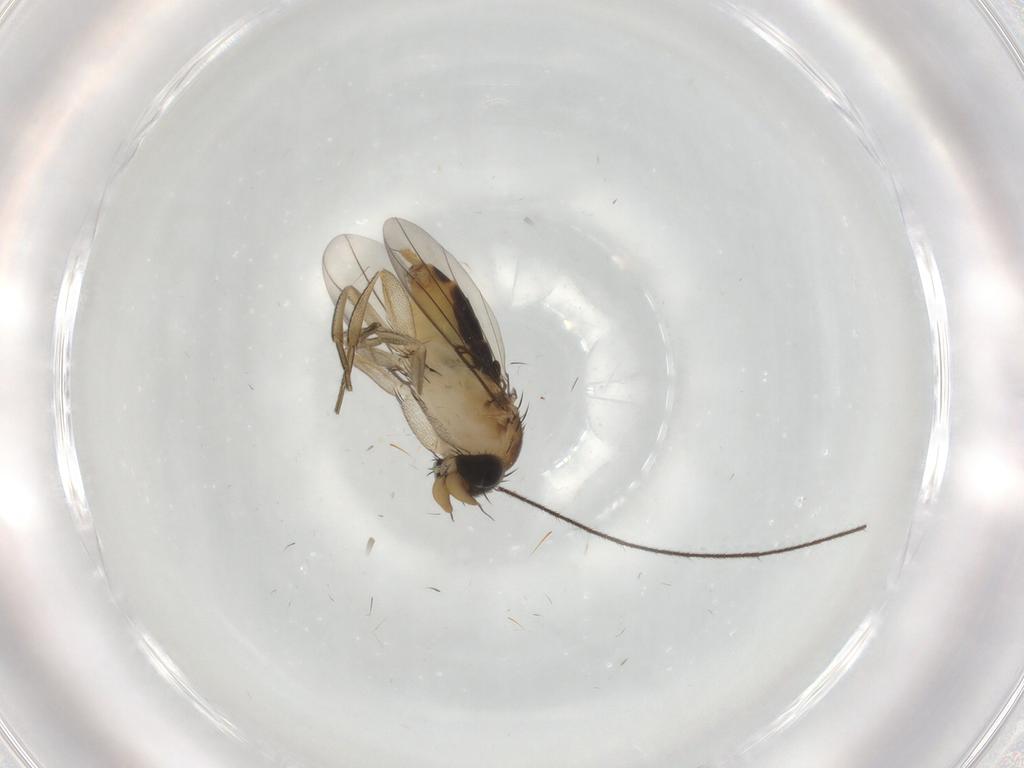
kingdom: Animalia
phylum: Arthropoda
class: Insecta
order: Diptera
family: Phoridae
